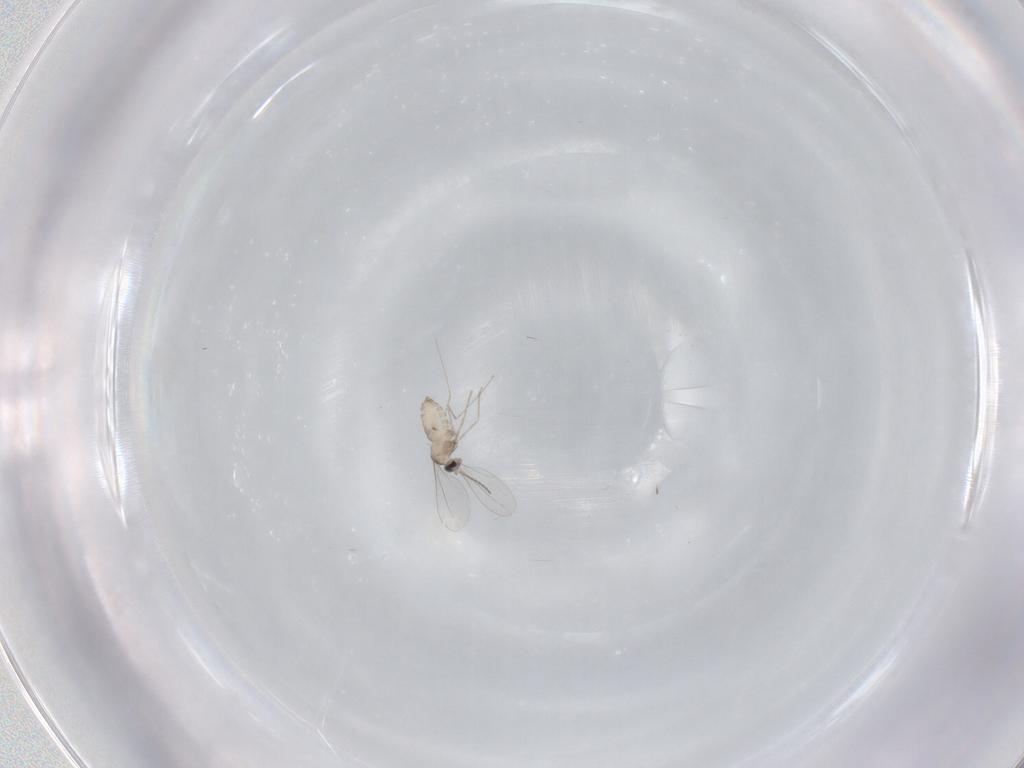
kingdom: Animalia
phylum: Arthropoda
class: Insecta
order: Diptera
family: Cecidomyiidae
